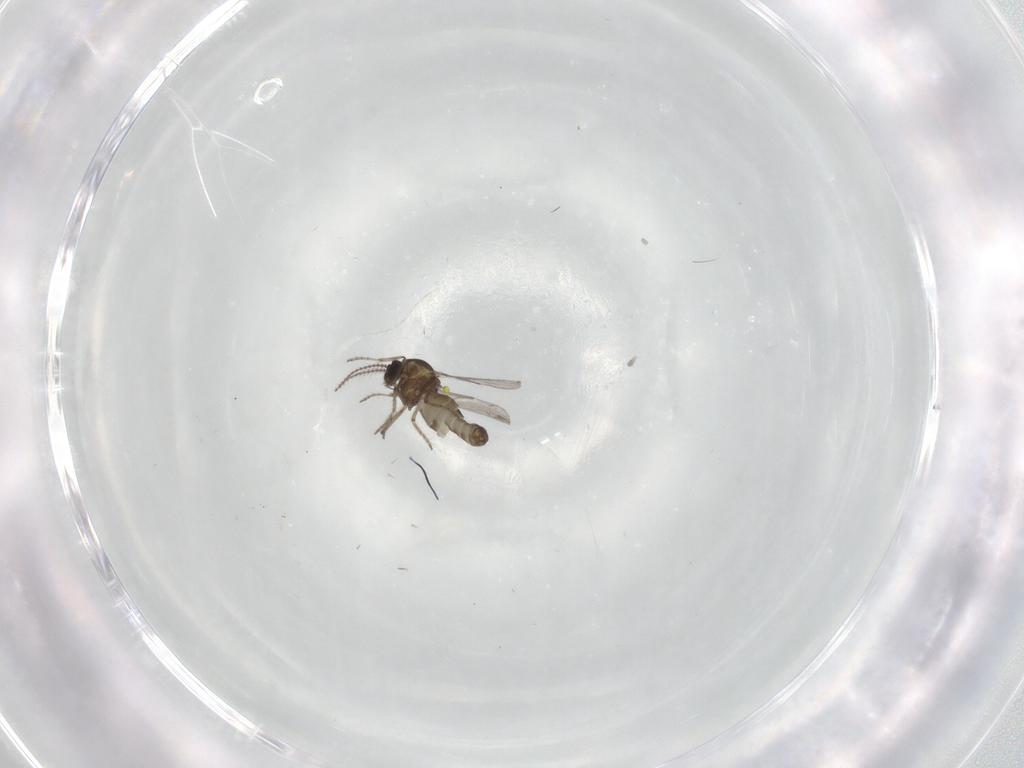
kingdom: Animalia
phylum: Arthropoda
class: Insecta
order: Diptera
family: Ceratopogonidae
